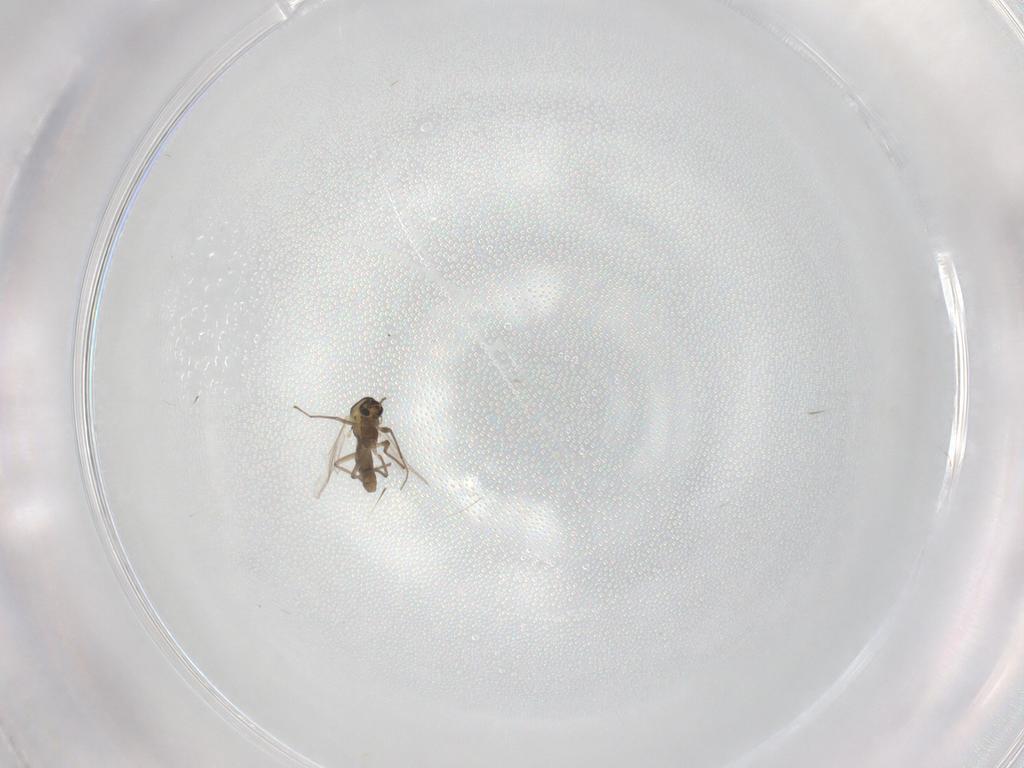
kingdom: Animalia
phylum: Arthropoda
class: Insecta
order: Diptera
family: Chironomidae
